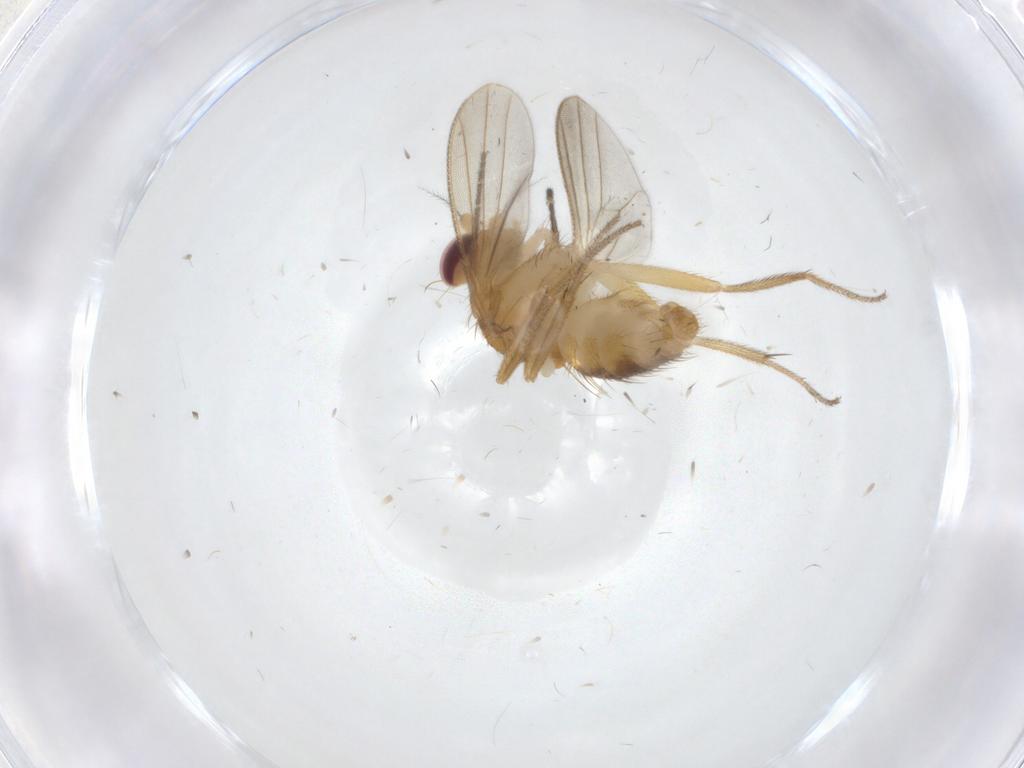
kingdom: Animalia
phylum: Arthropoda
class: Insecta
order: Diptera
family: Clusiidae
